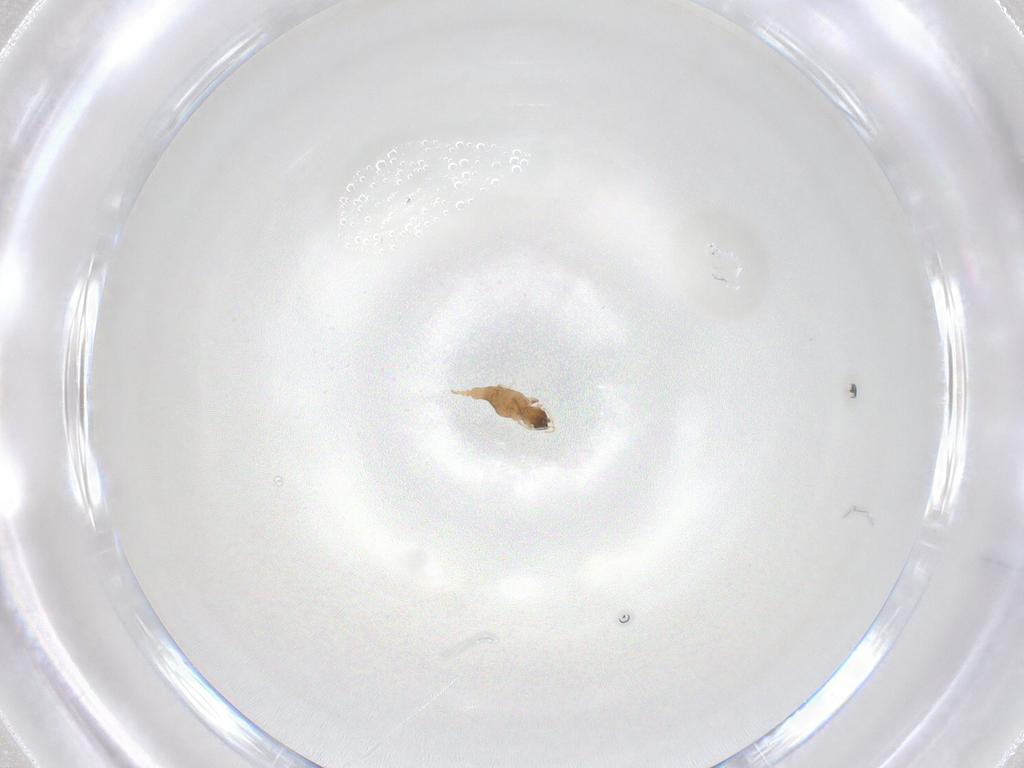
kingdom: Animalia
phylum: Arthropoda
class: Insecta
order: Diptera
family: Cecidomyiidae
